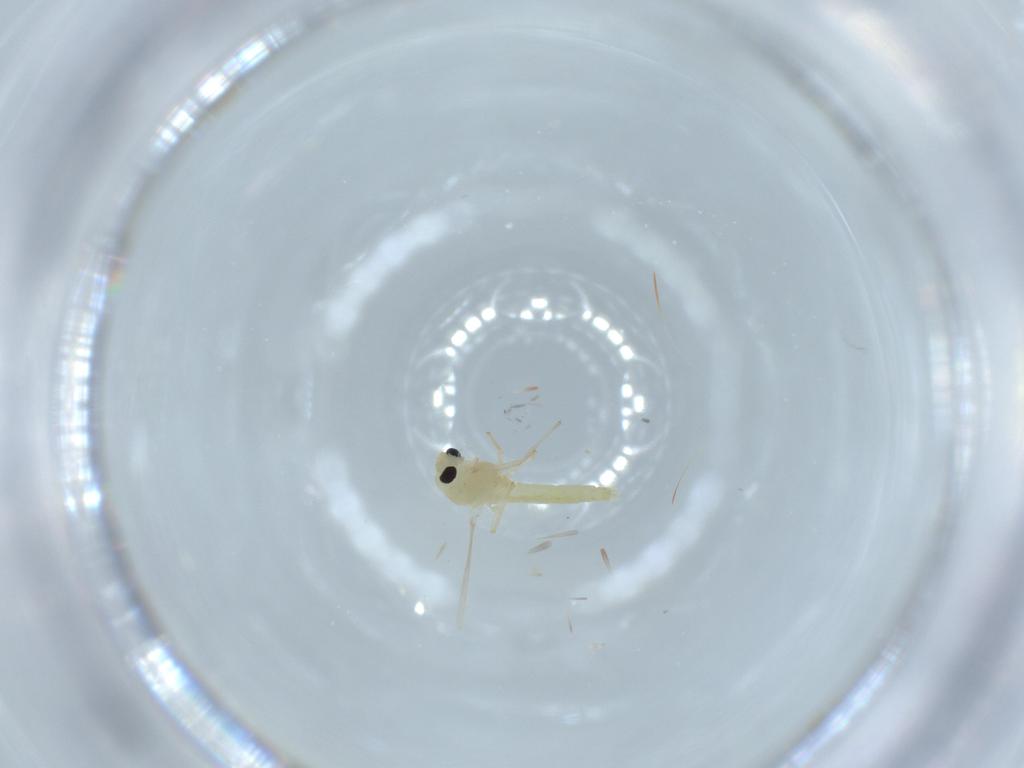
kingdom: Animalia
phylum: Arthropoda
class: Insecta
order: Diptera
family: Chironomidae
